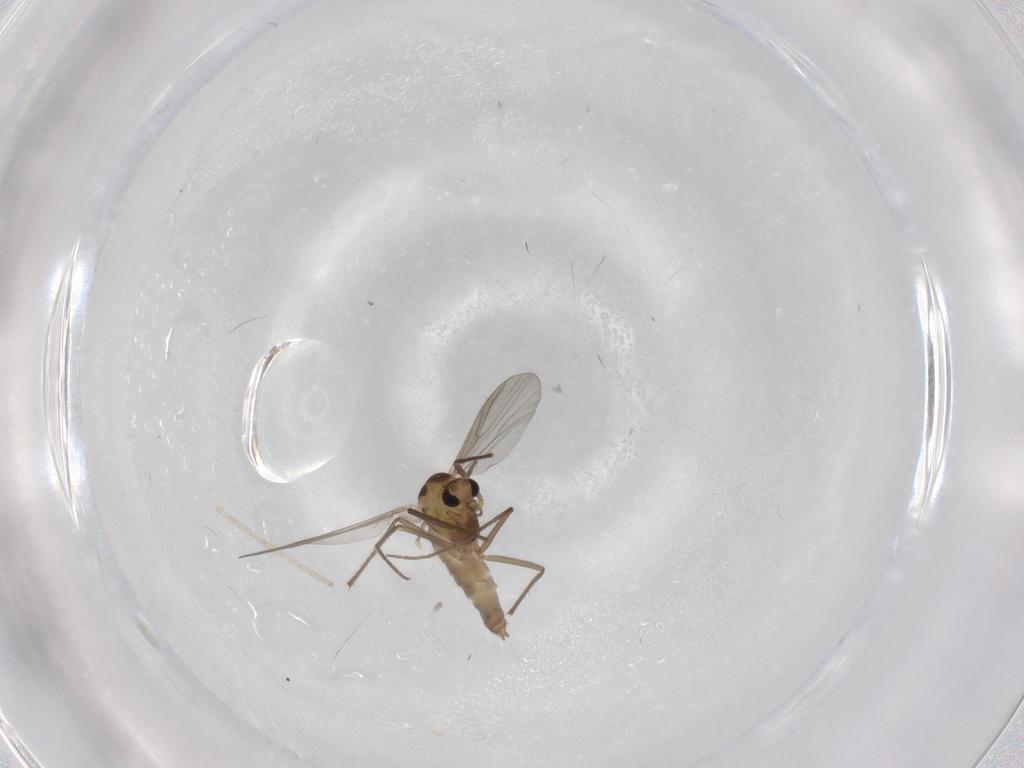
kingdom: Animalia
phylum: Arthropoda
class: Insecta
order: Diptera
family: Chironomidae
